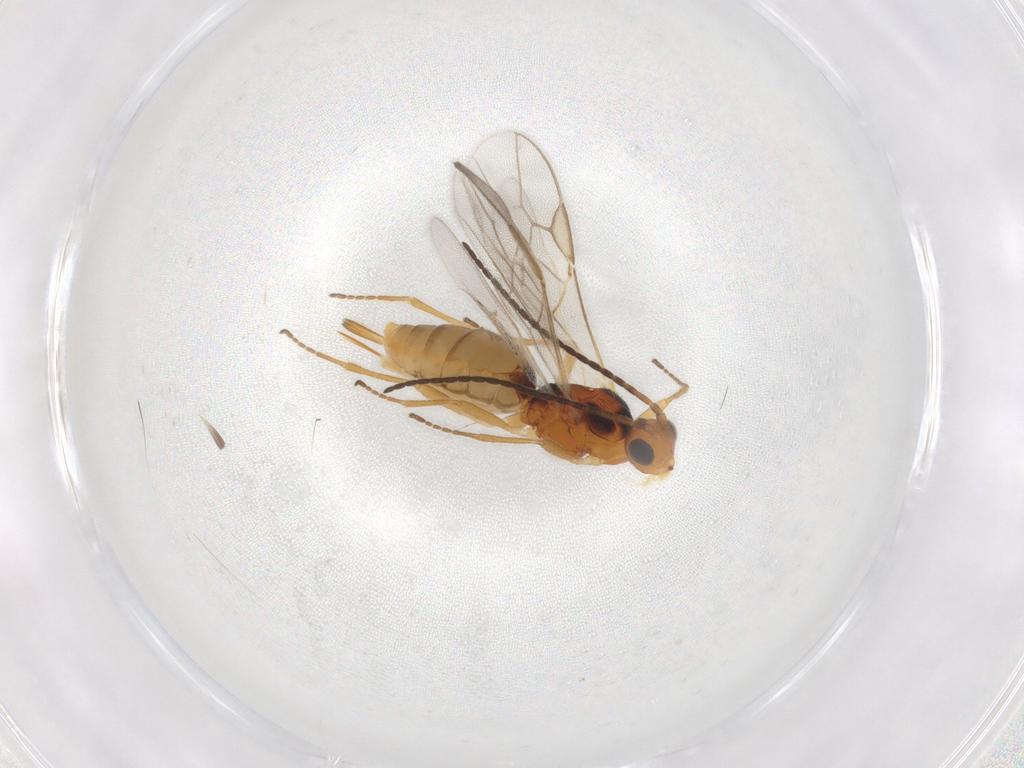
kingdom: Animalia
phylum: Arthropoda
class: Insecta
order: Hymenoptera
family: Braconidae
